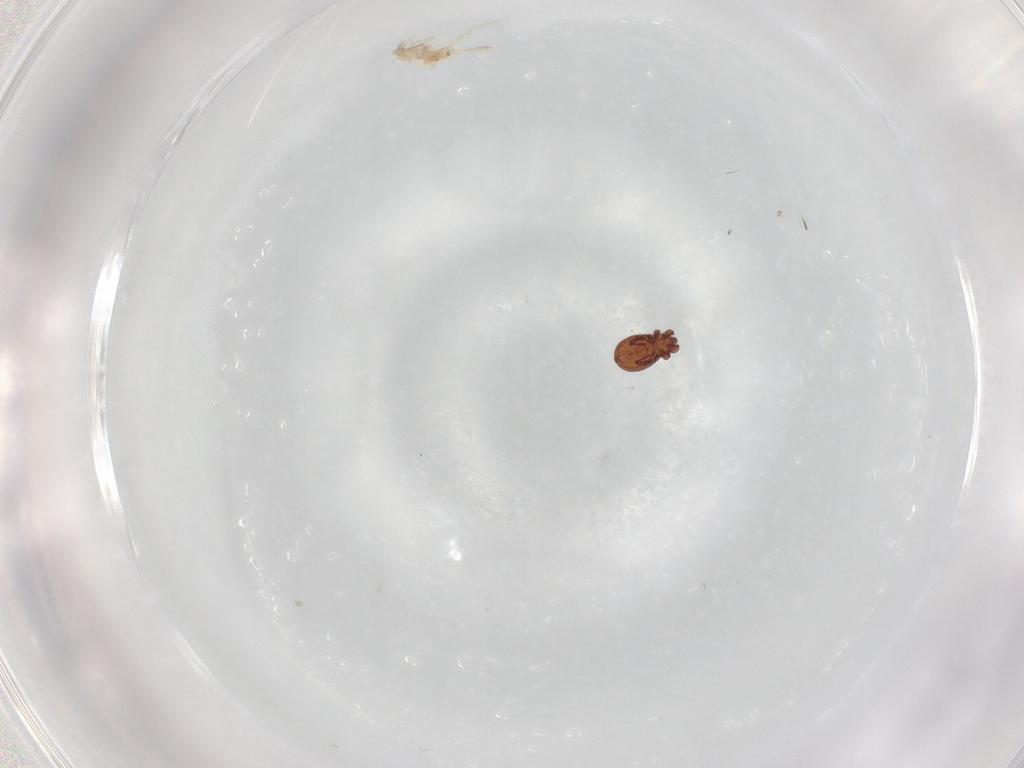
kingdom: Animalia
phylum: Arthropoda
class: Arachnida
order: Sarcoptiformes
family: Eremaeidae
